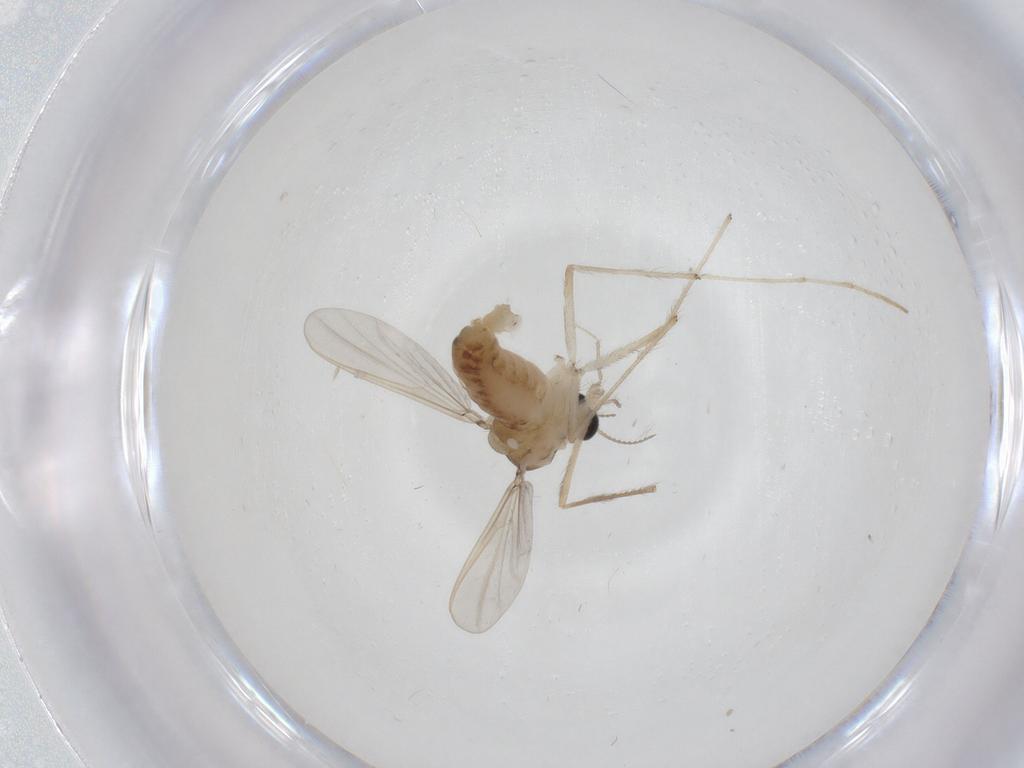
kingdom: Animalia
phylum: Arthropoda
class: Insecta
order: Diptera
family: Chironomidae
